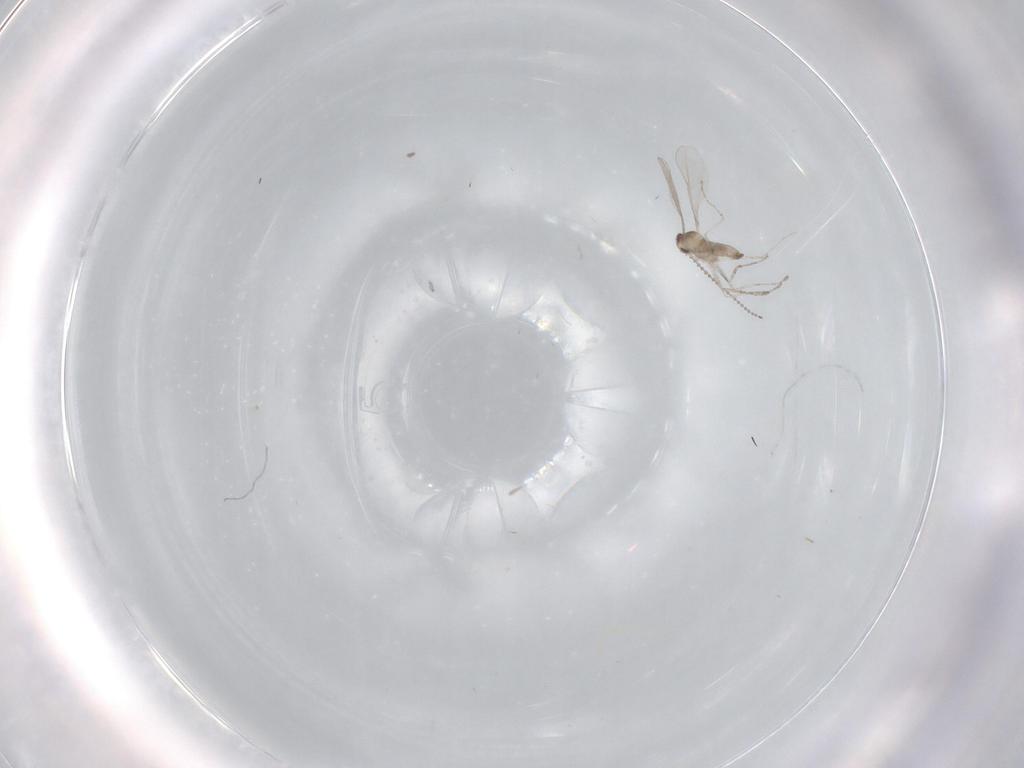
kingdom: Animalia
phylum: Arthropoda
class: Insecta
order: Diptera
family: Cecidomyiidae
